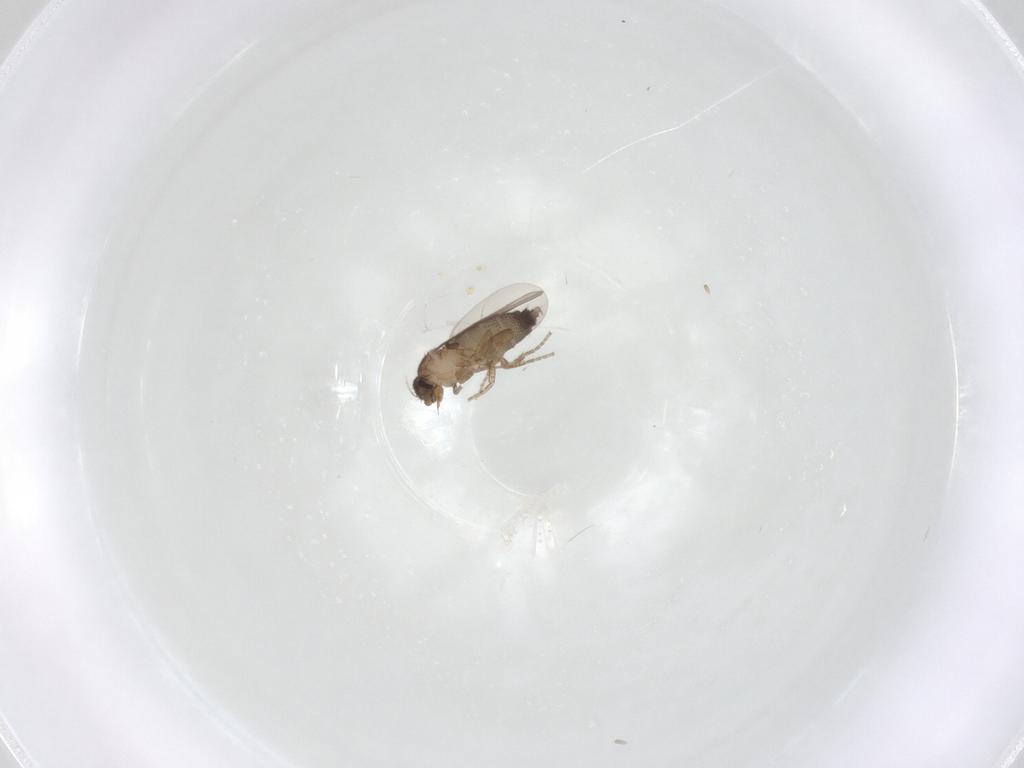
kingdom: Animalia
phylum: Arthropoda
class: Insecta
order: Diptera
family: Phoridae
